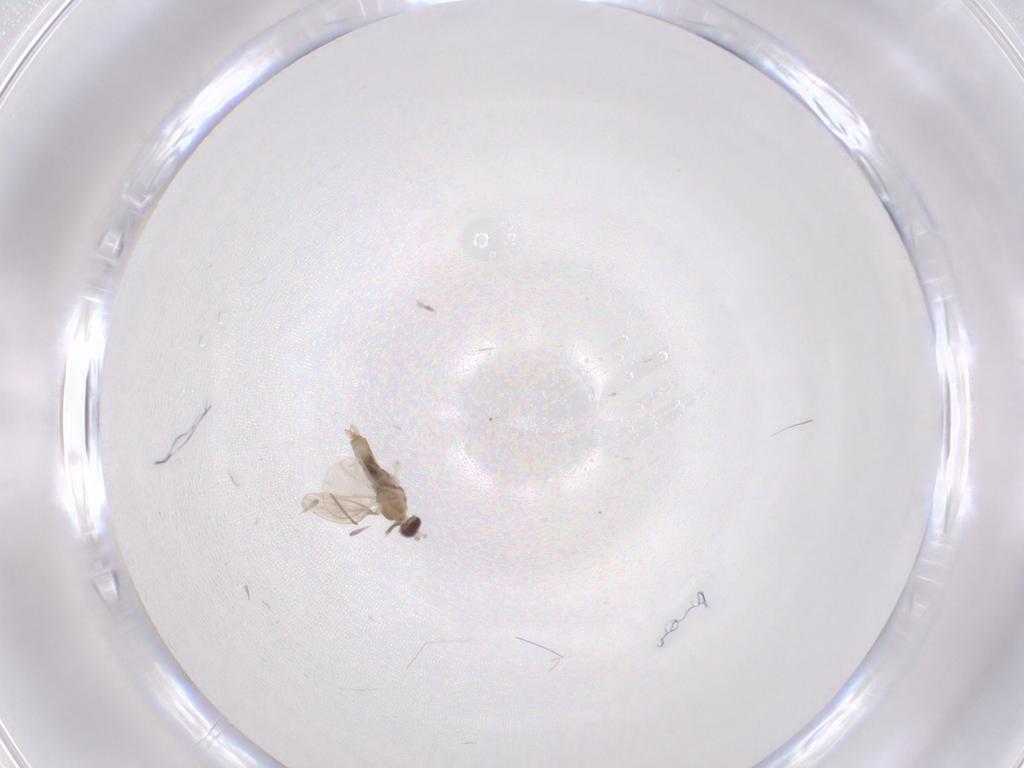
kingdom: Animalia
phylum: Arthropoda
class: Insecta
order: Diptera
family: Cecidomyiidae
